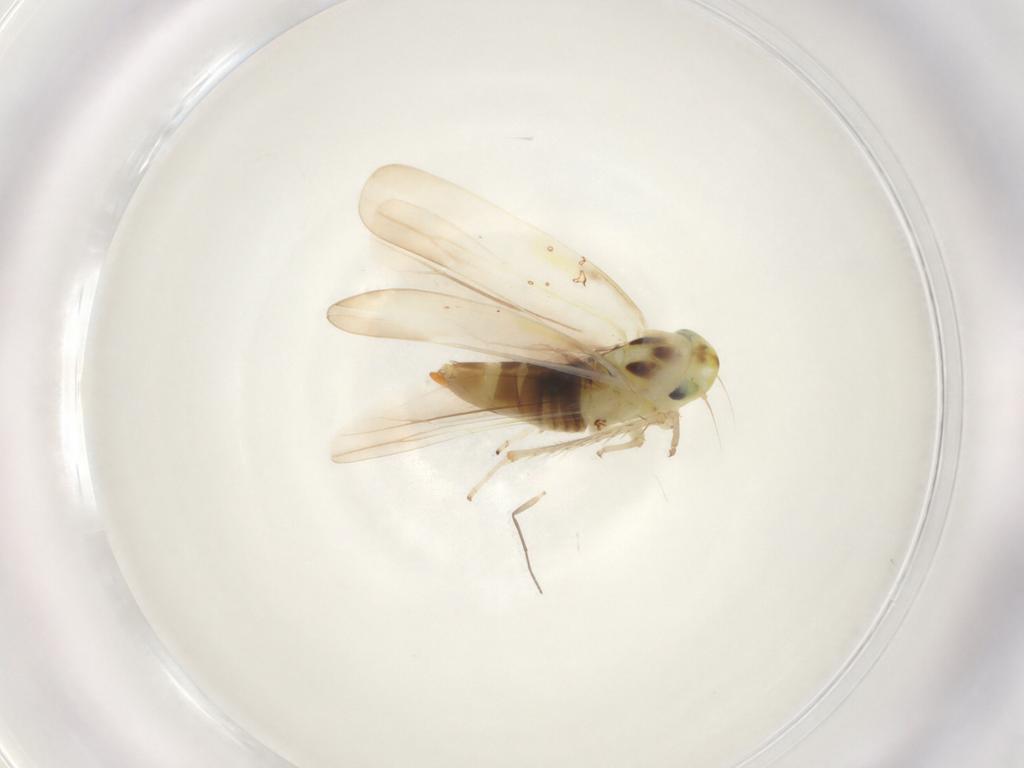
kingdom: Animalia
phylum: Arthropoda
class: Insecta
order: Hemiptera
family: Cicadellidae
